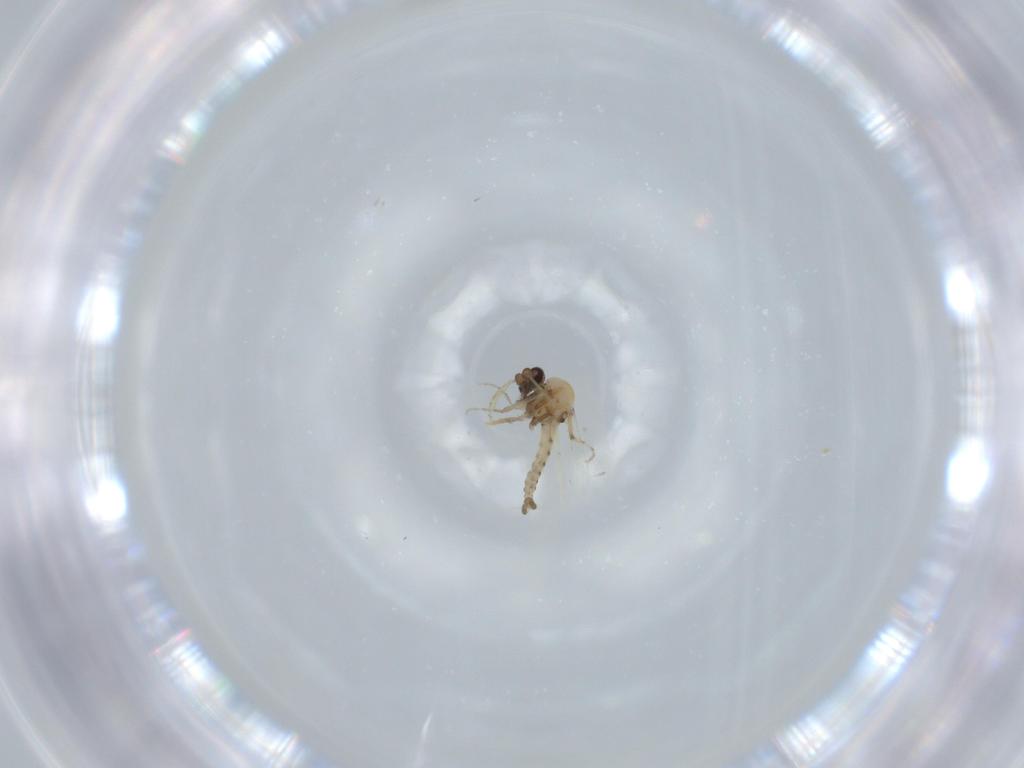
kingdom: Animalia
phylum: Arthropoda
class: Insecta
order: Diptera
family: Ceratopogonidae
